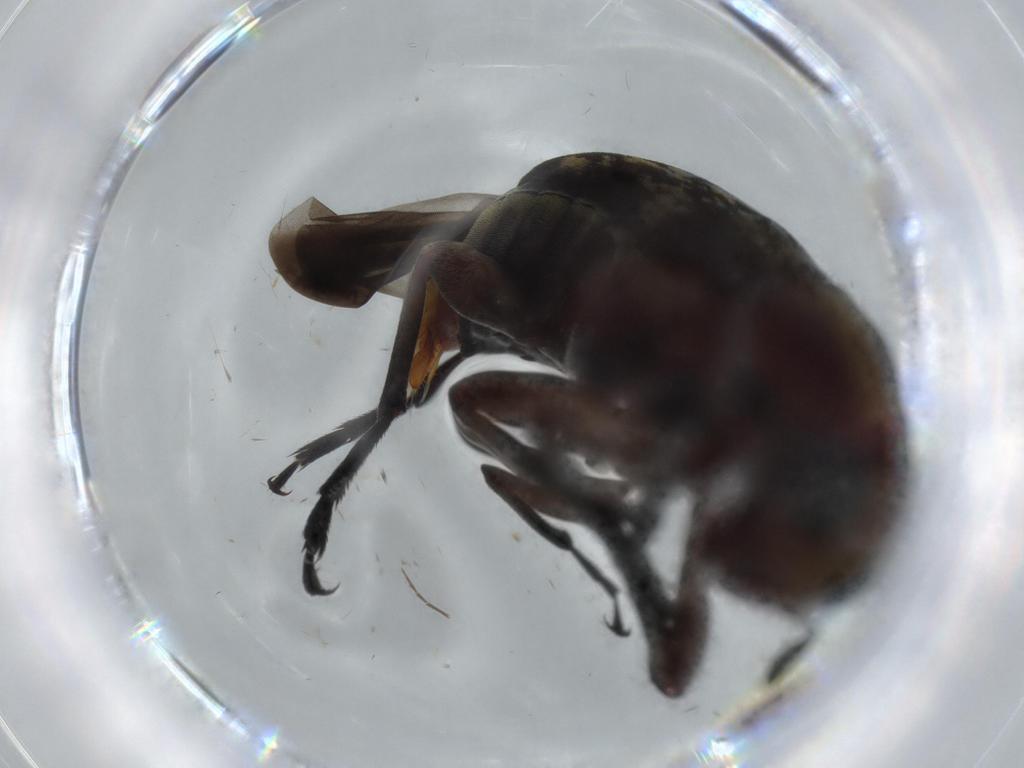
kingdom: Animalia
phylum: Arthropoda
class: Insecta
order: Coleoptera
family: Anthribidae
